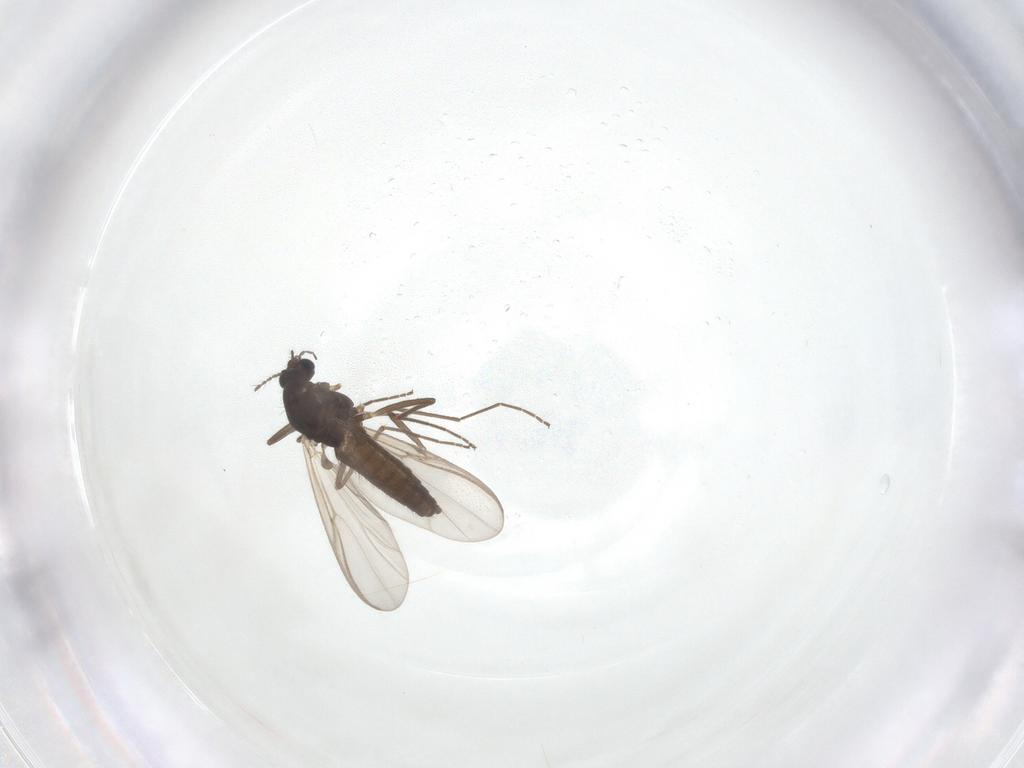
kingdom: Animalia
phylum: Arthropoda
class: Insecta
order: Diptera
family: Chironomidae
